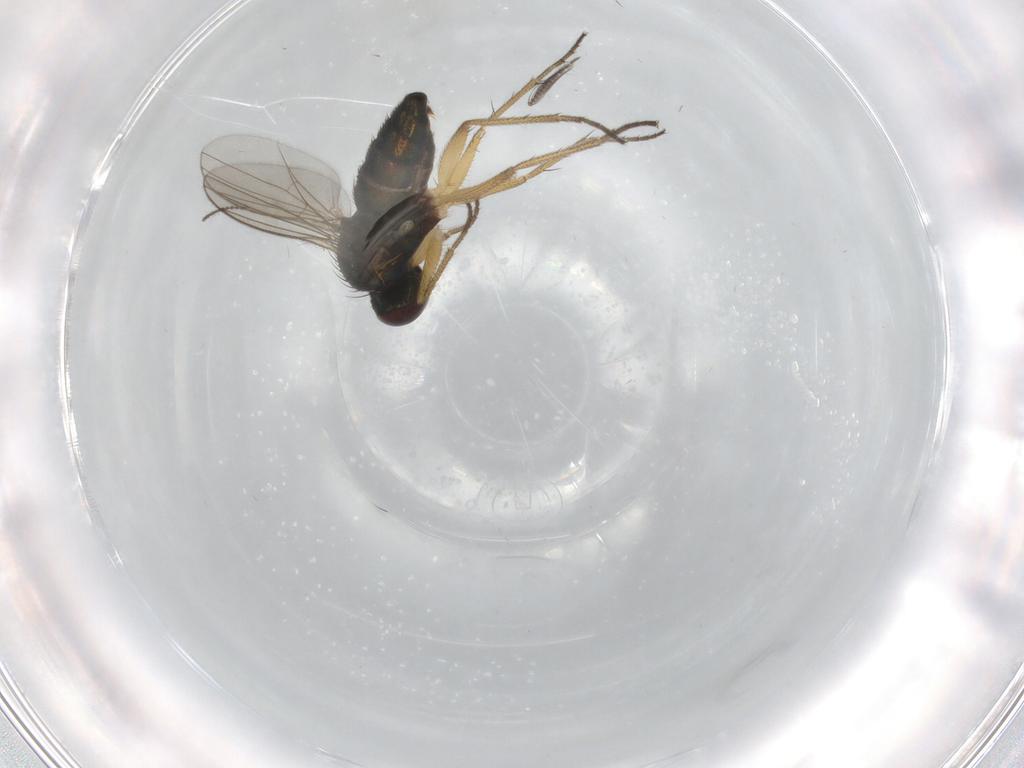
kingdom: Animalia
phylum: Arthropoda
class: Insecta
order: Diptera
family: Ceratopogonidae
